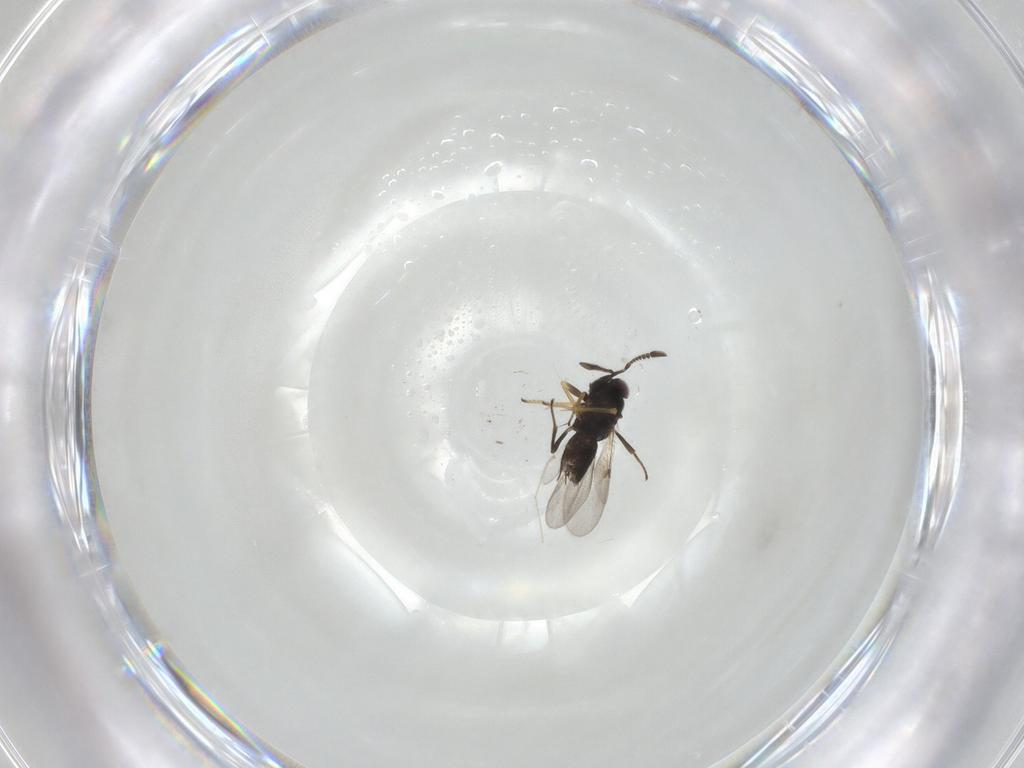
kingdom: Animalia
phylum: Arthropoda
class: Insecta
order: Hymenoptera
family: Encyrtidae
